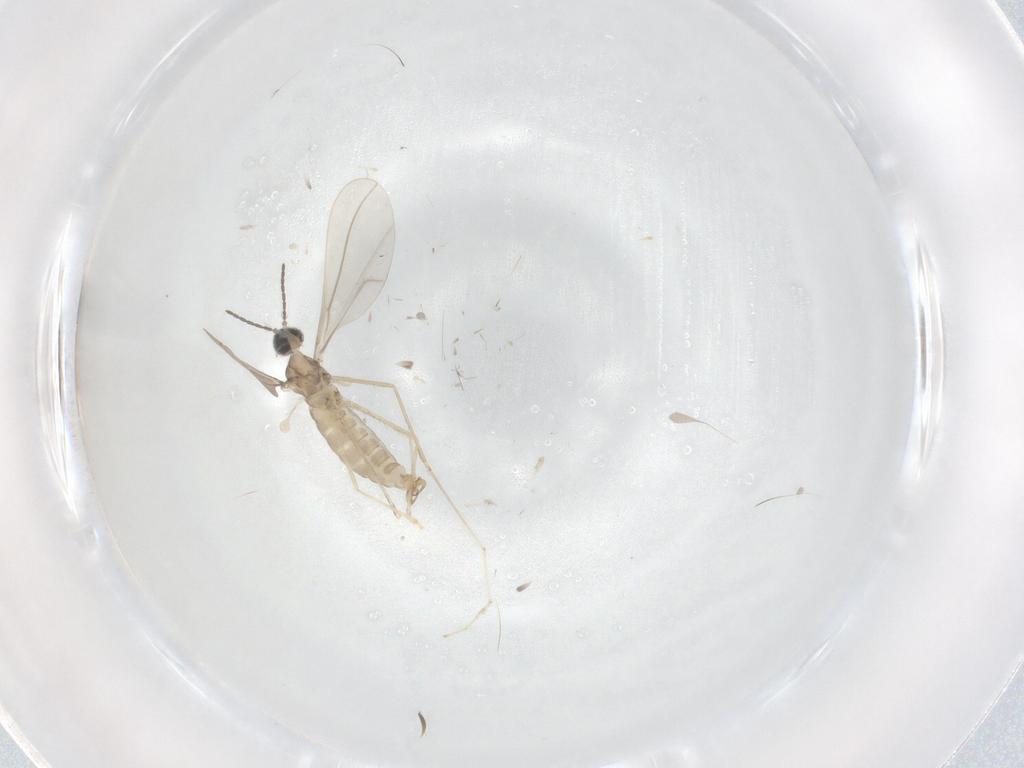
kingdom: Animalia
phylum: Arthropoda
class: Insecta
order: Diptera
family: Cecidomyiidae
